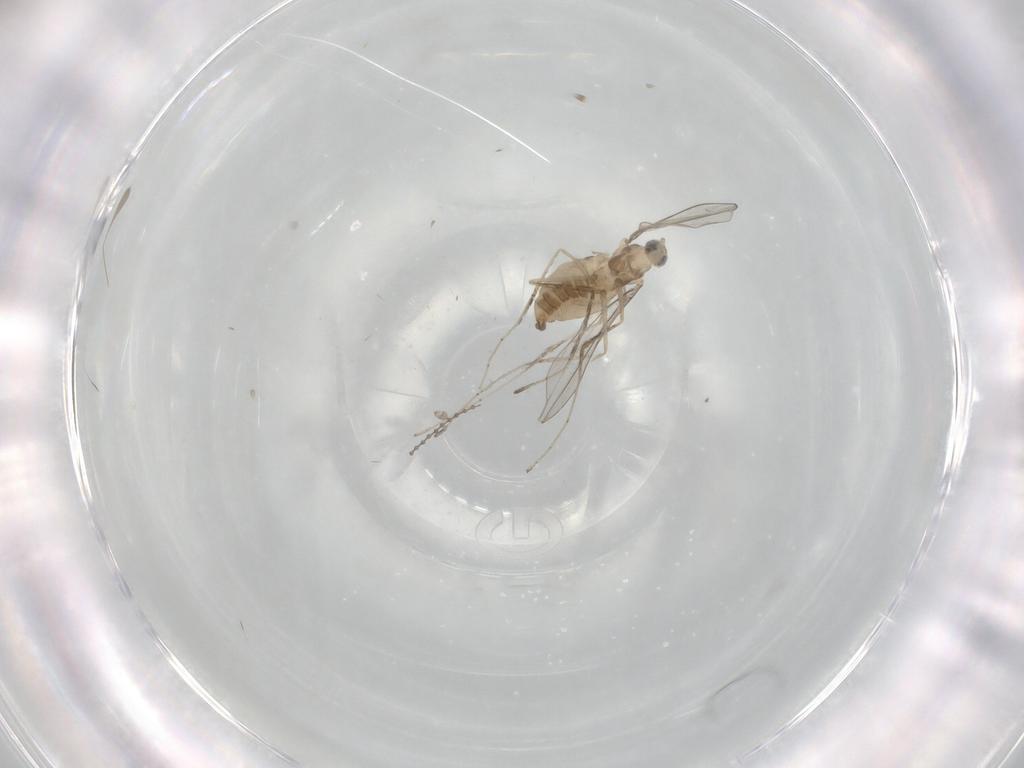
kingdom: Animalia
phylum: Arthropoda
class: Insecta
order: Diptera
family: Cecidomyiidae
